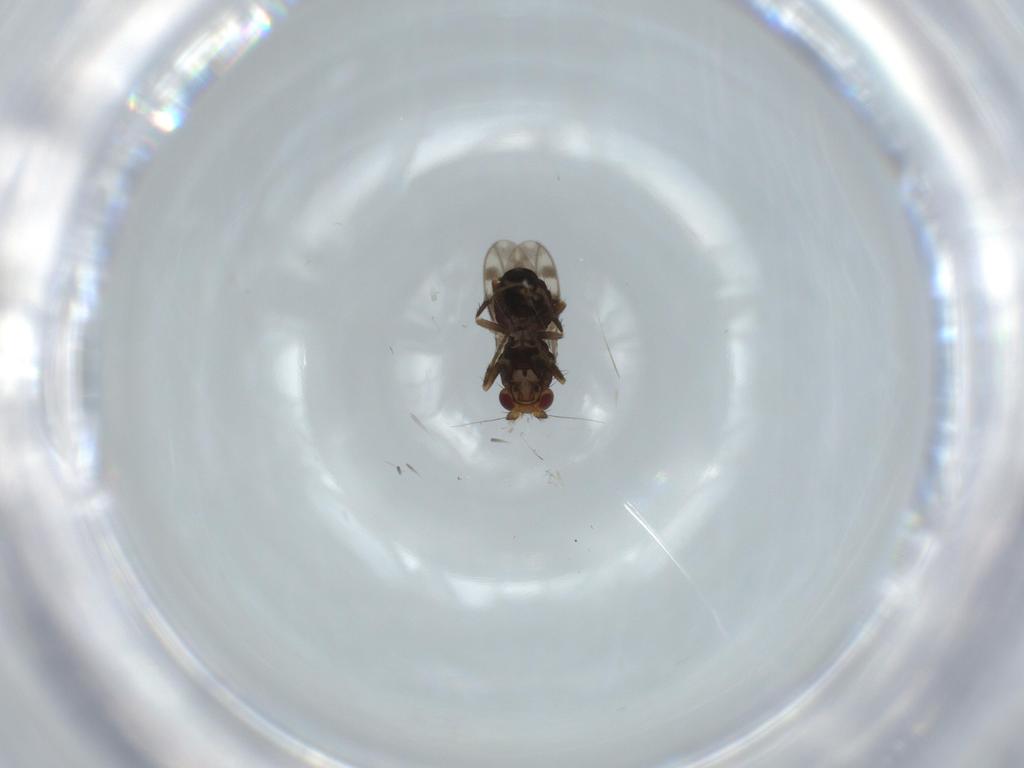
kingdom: Animalia
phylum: Arthropoda
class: Insecta
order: Diptera
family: Sphaeroceridae
